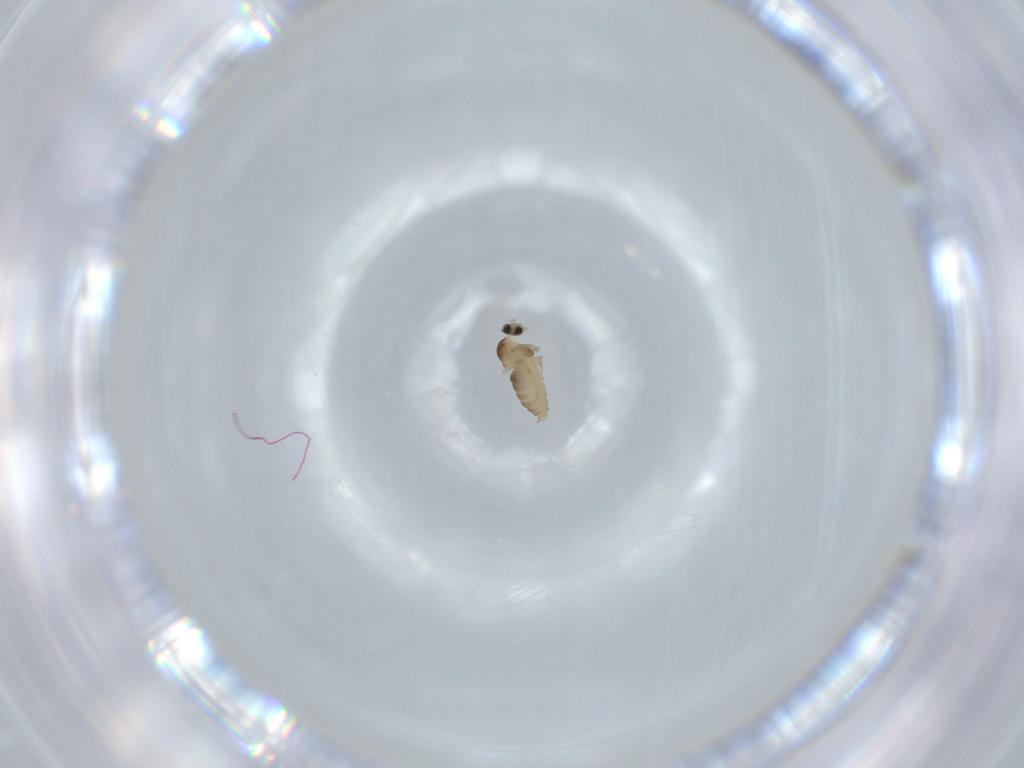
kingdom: Animalia
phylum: Arthropoda
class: Insecta
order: Diptera
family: Cecidomyiidae
